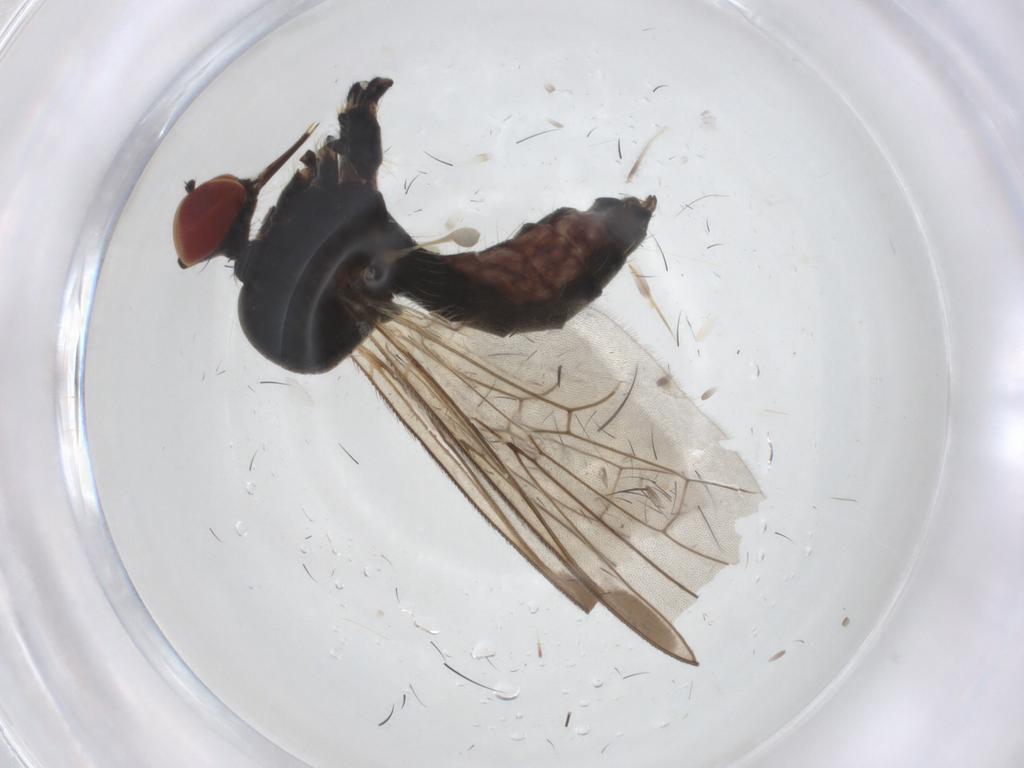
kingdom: Animalia
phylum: Arthropoda
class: Insecta
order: Diptera
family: Dolichopodidae
